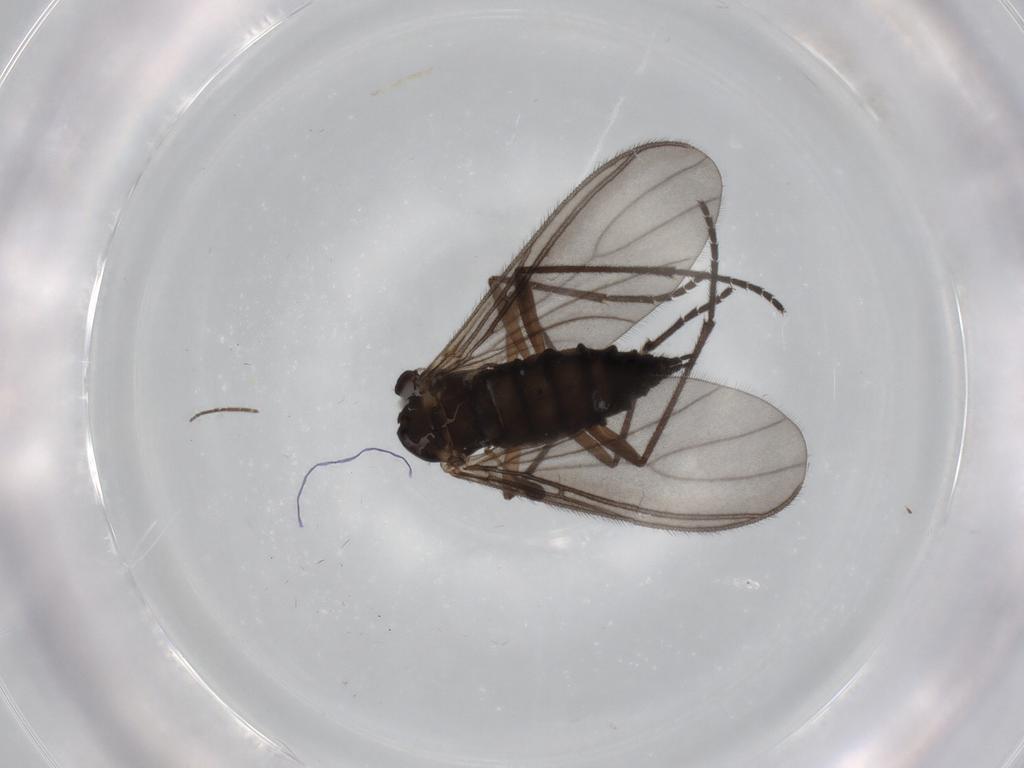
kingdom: Animalia
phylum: Arthropoda
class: Insecta
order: Diptera
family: Sciaridae
